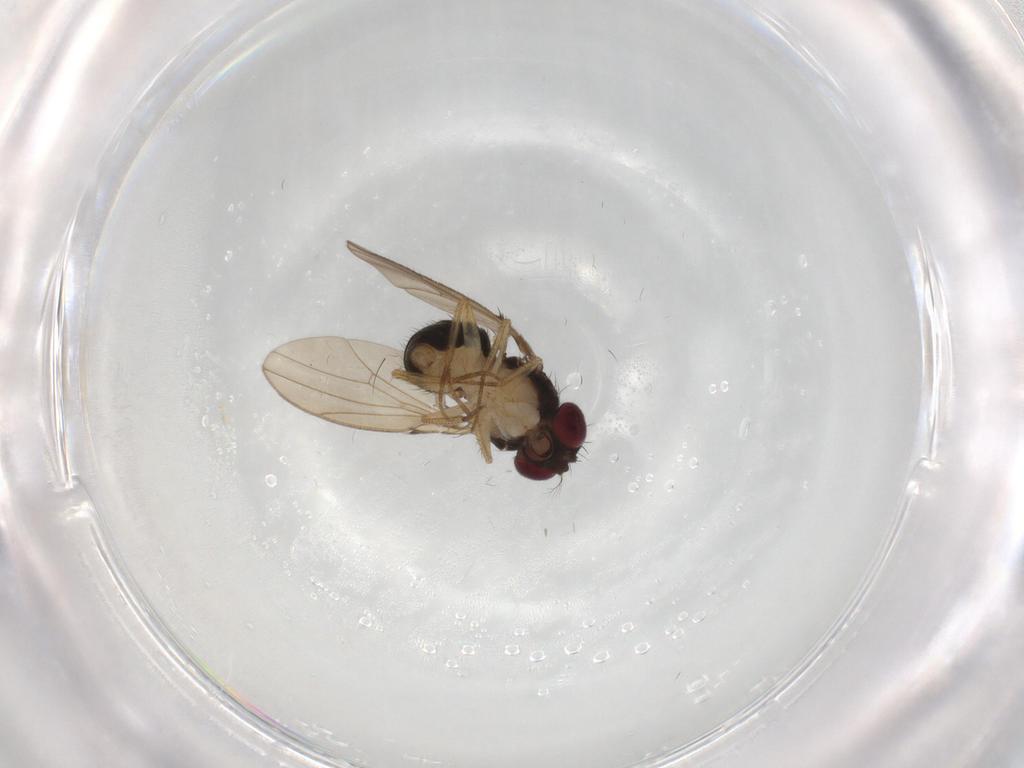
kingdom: Animalia
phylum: Arthropoda
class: Insecta
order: Diptera
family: Drosophilidae
